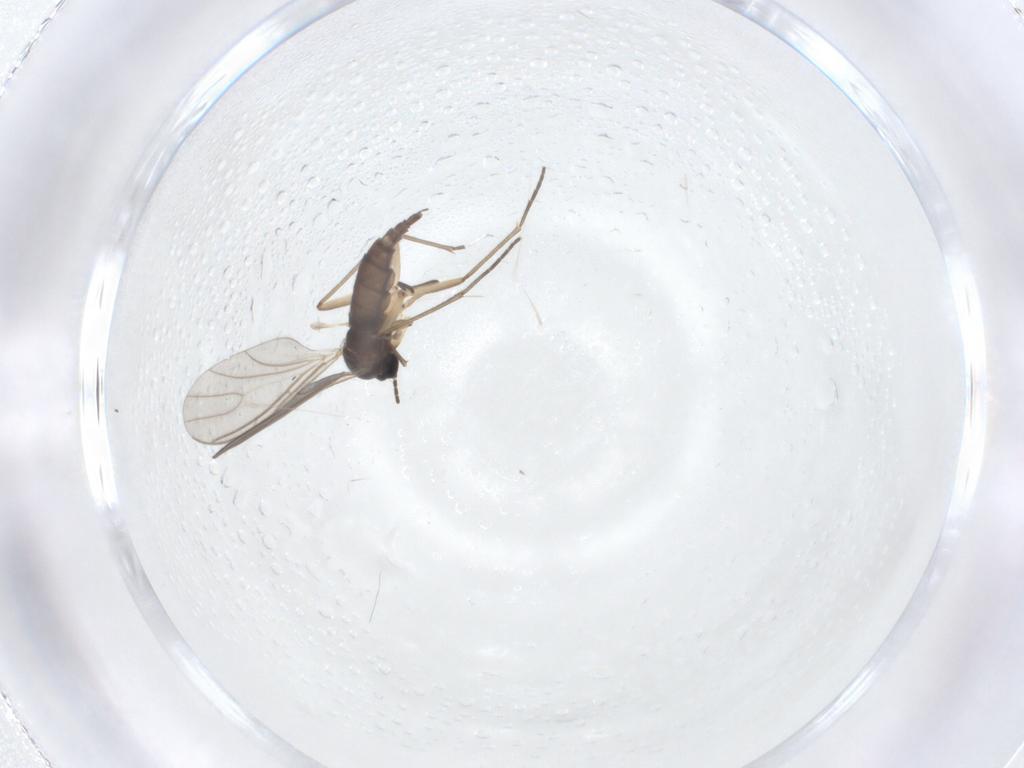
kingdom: Animalia
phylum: Arthropoda
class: Insecta
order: Diptera
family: Sciaridae
